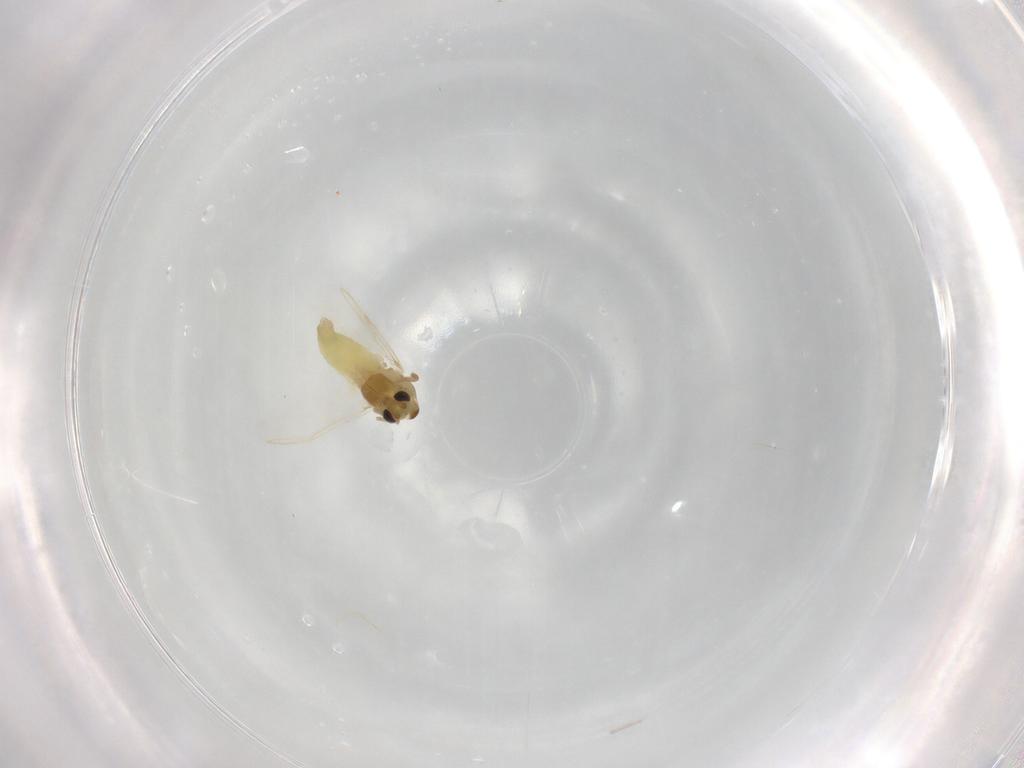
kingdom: Animalia
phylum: Arthropoda
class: Insecta
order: Diptera
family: Chironomidae
